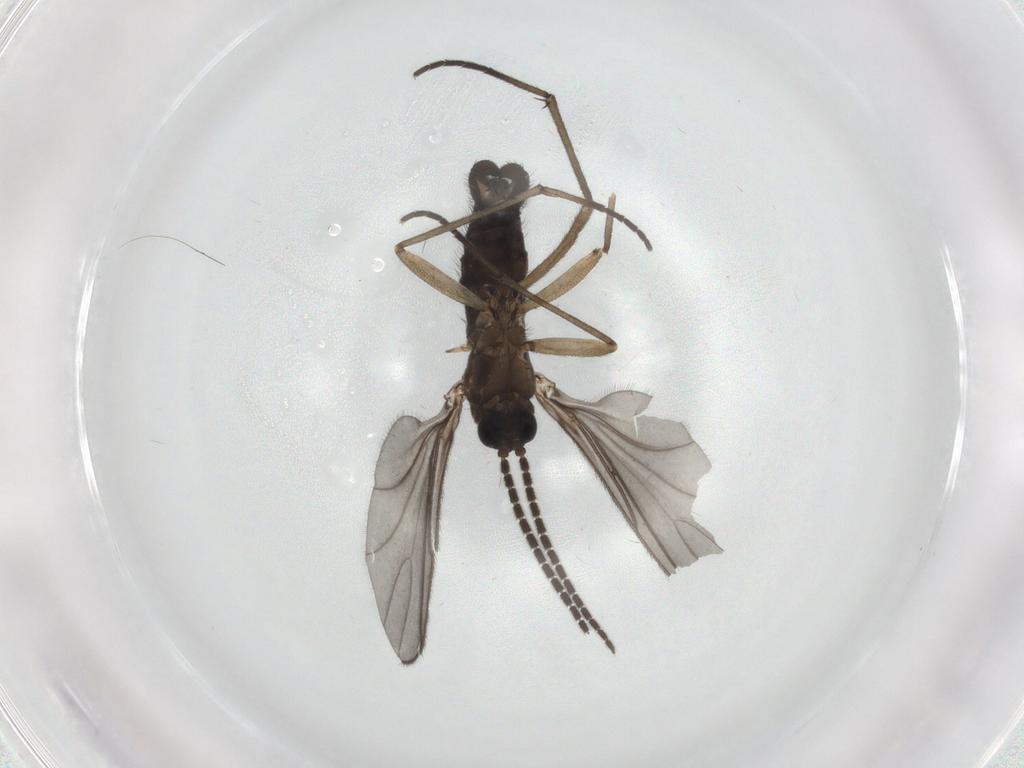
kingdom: Animalia
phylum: Arthropoda
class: Insecta
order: Diptera
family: Sciaridae
